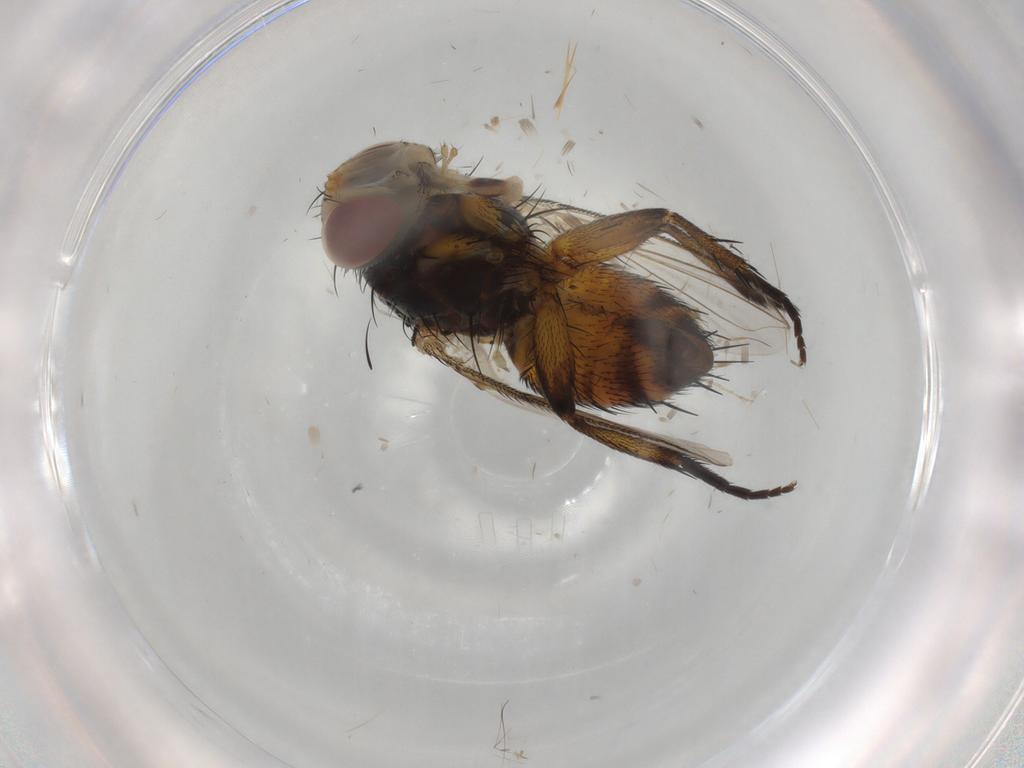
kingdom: Animalia
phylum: Arthropoda
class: Insecta
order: Diptera
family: Tachinidae
